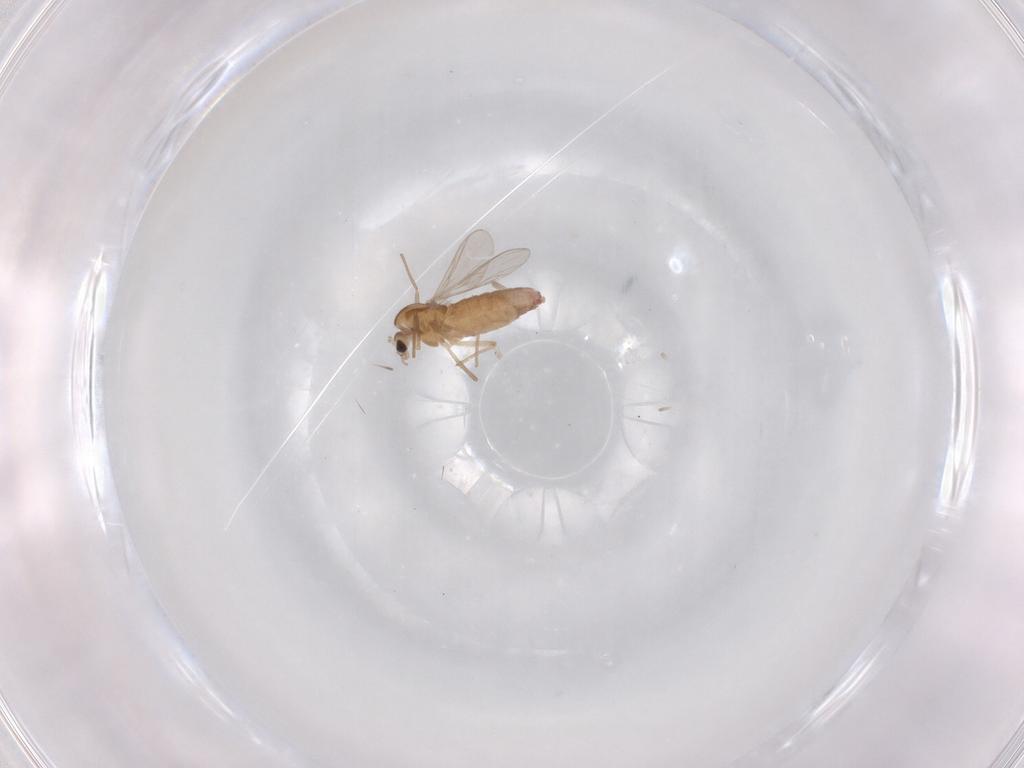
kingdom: Animalia
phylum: Arthropoda
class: Insecta
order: Diptera
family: Chironomidae
